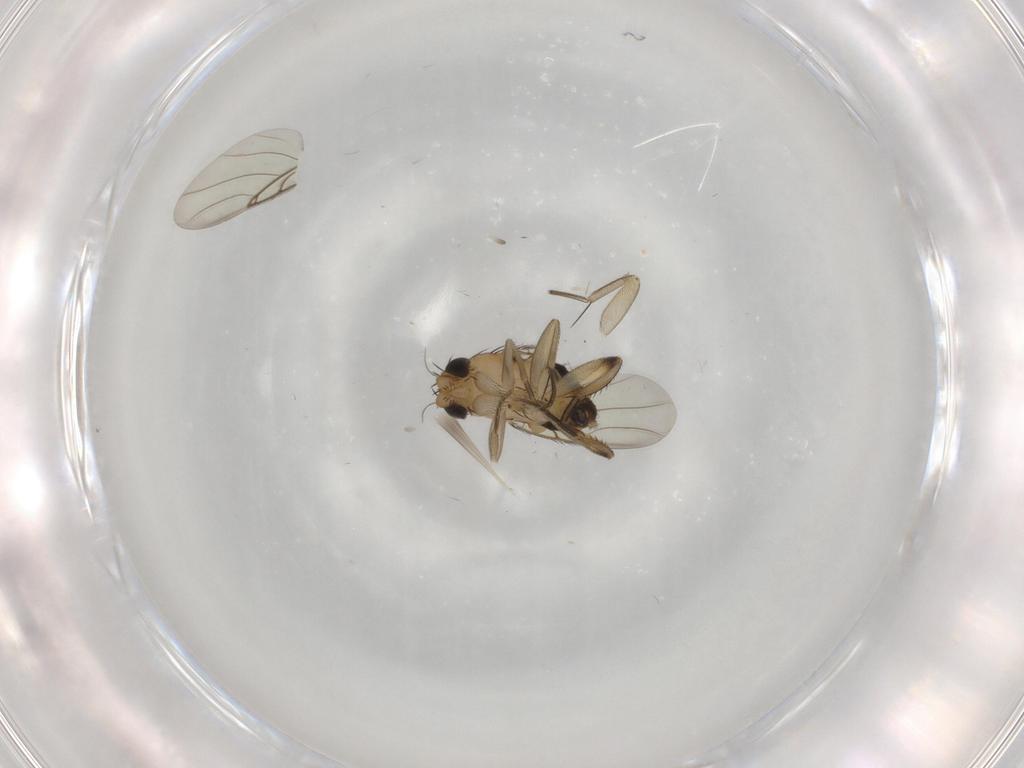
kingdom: Animalia
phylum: Arthropoda
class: Insecta
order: Diptera
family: Phoridae
